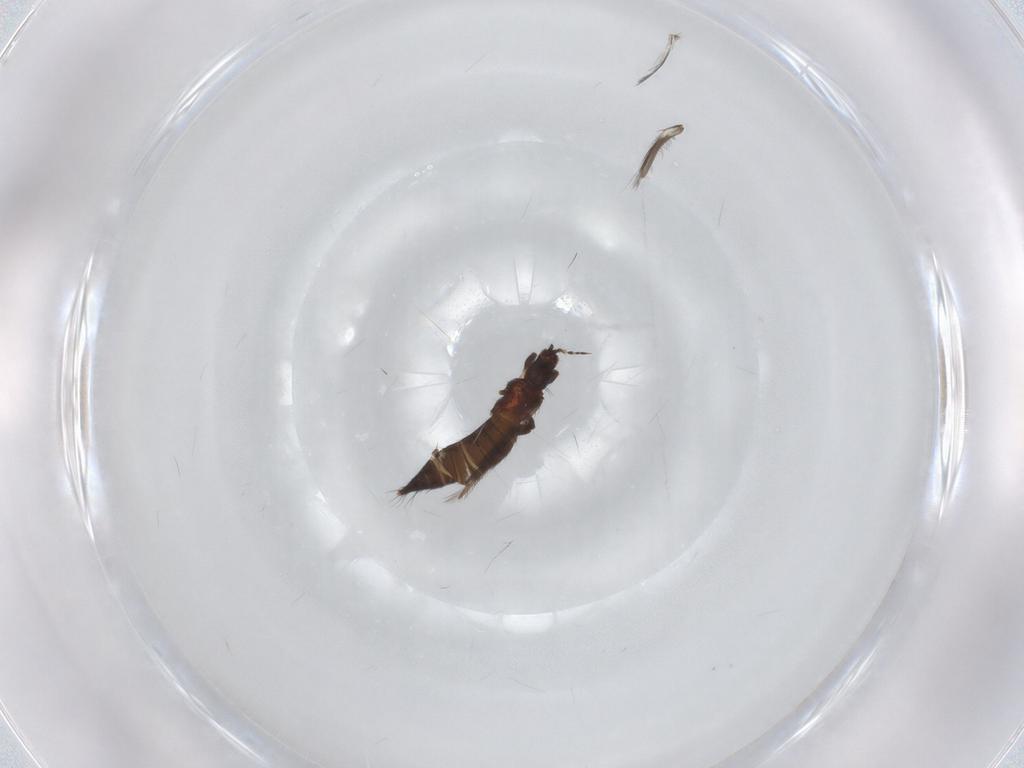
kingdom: Animalia
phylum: Arthropoda
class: Insecta
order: Thysanoptera
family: Thripidae
